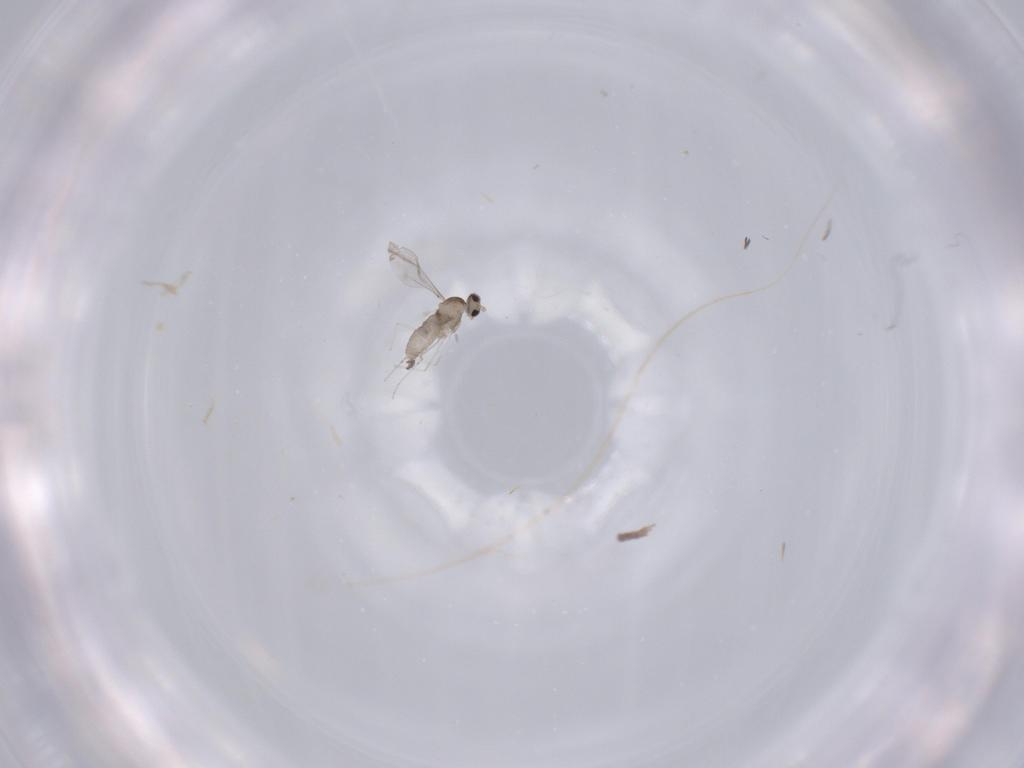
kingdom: Animalia
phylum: Arthropoda
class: Insecta
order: Diptera
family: Cecidomyiidae
